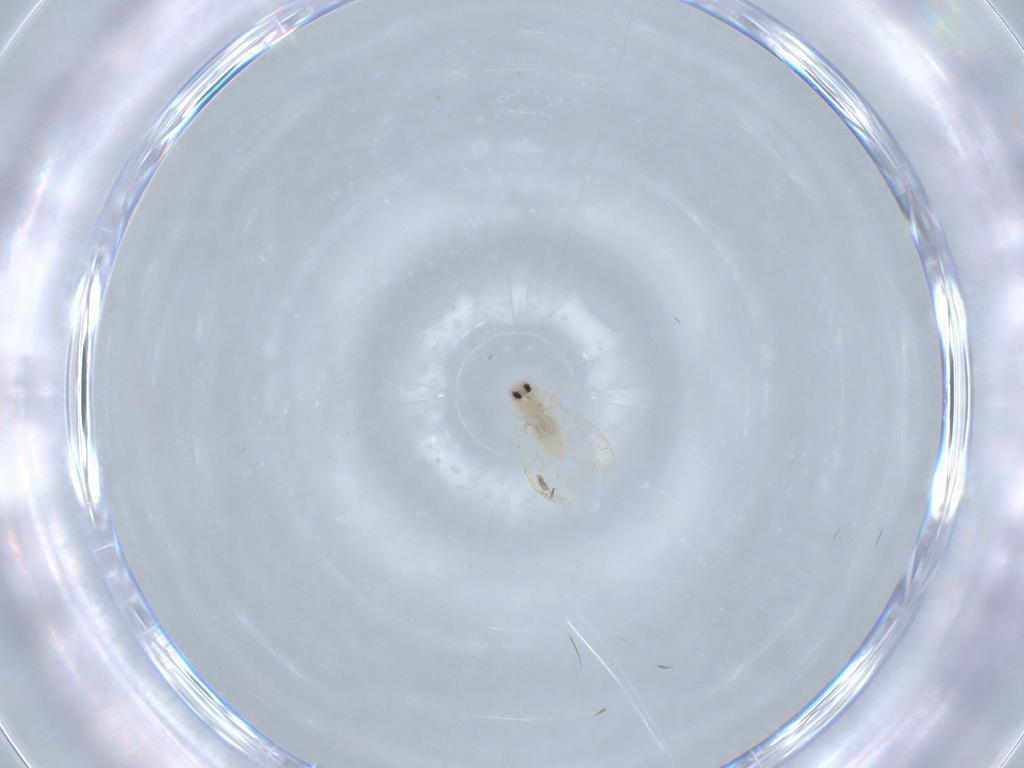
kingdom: Animalia
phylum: Arthropoda
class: Insecta
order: Hemiptera
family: Aleyrodidae
